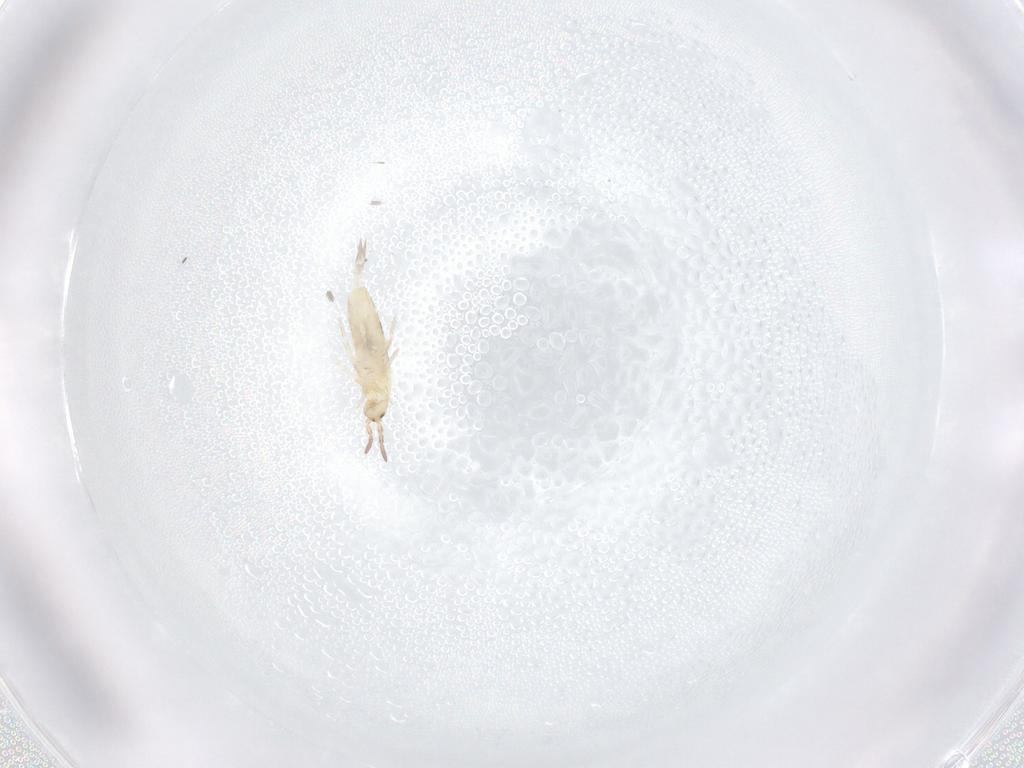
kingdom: Animalia
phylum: Arthropoda
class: Collembola
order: Entomobryomorpha
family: Entomobryidae
